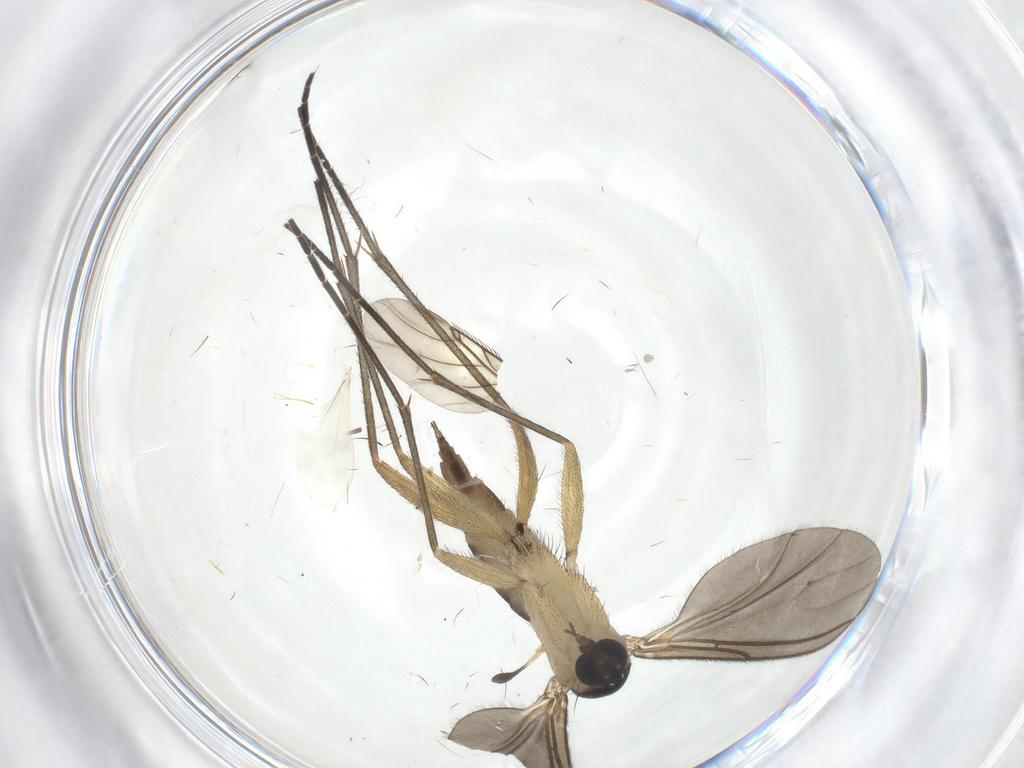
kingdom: Animalia
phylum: Arthropoda
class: Insecta
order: Diptera
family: Sciaridae
